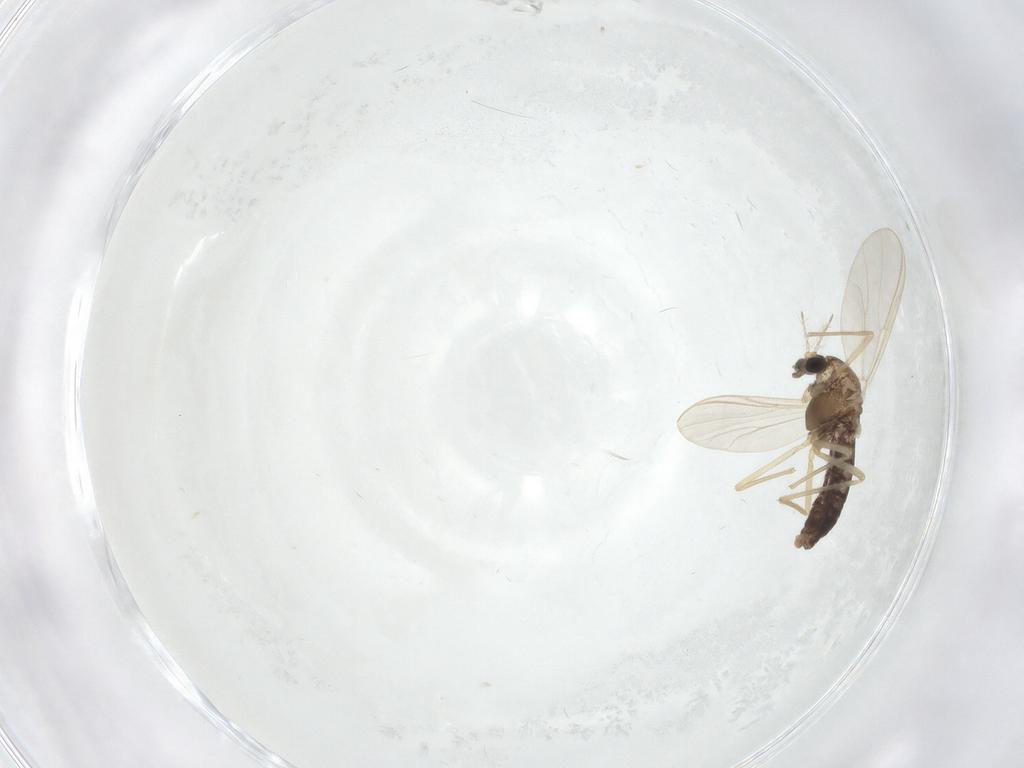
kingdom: Animalia
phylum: Arthropoda
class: Insecta
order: Diptera
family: Chironomidae
